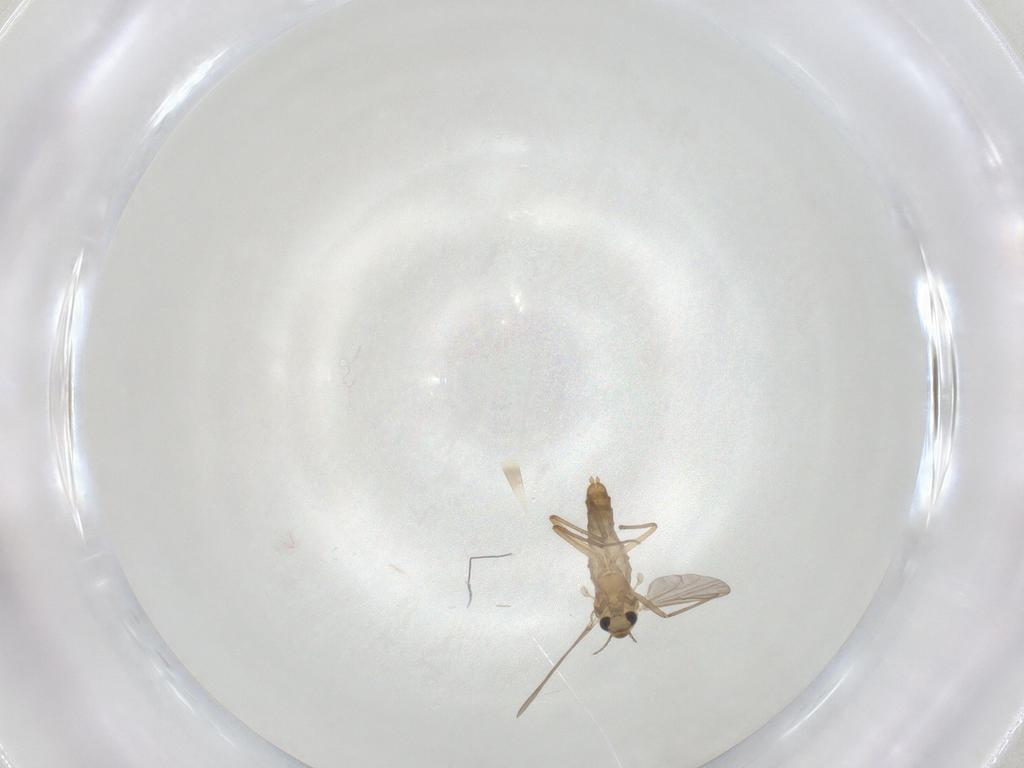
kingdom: Animalia
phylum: Arthropoda
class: Insecta
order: Diptera
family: Chironomidae
